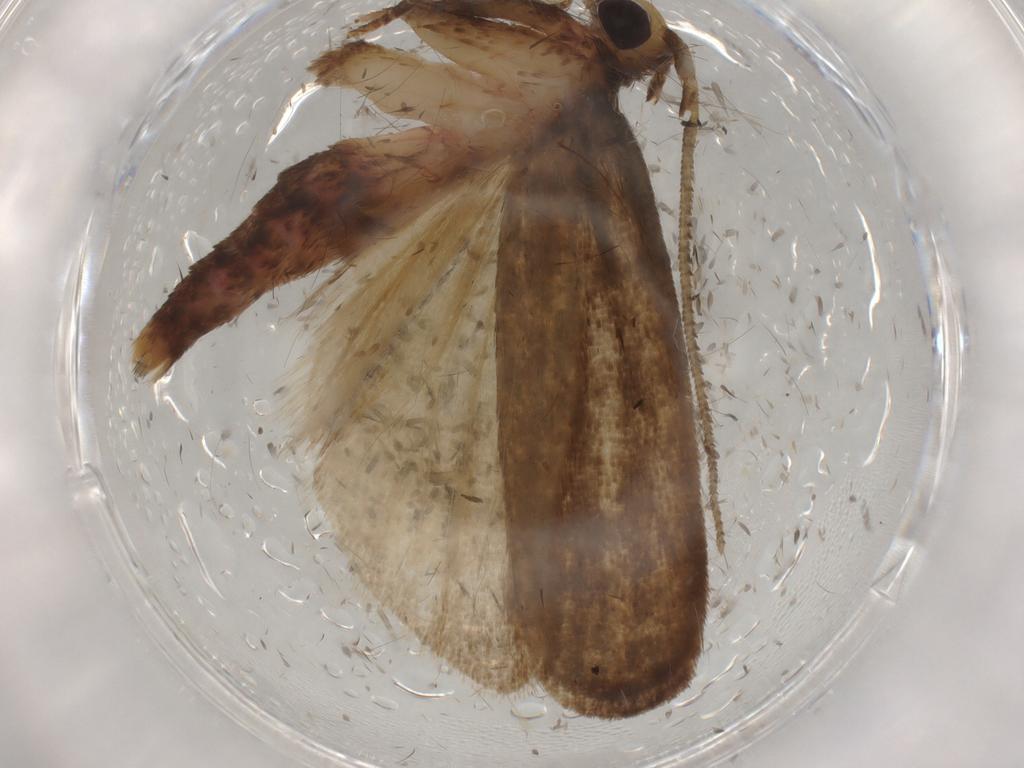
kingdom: Animalia
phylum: Arthropoda
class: Insecta
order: Lepidoptera
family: Autostichidae
